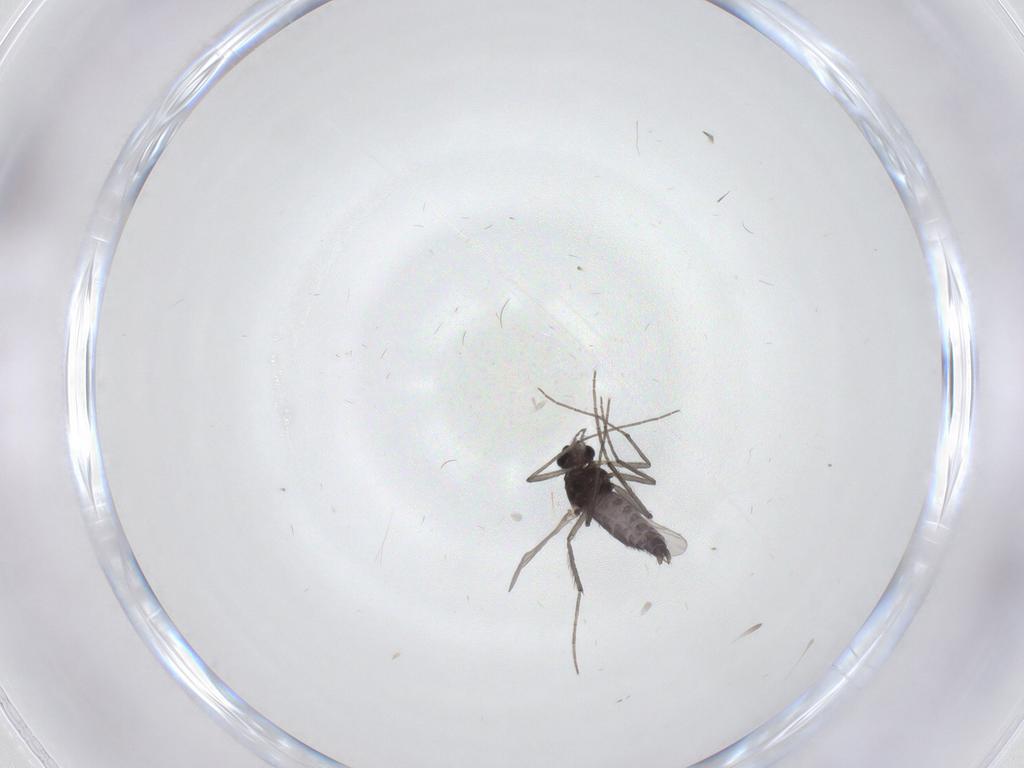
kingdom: Animalia
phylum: Arthropoda
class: Insecta
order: Diptera
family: Chironomidae
